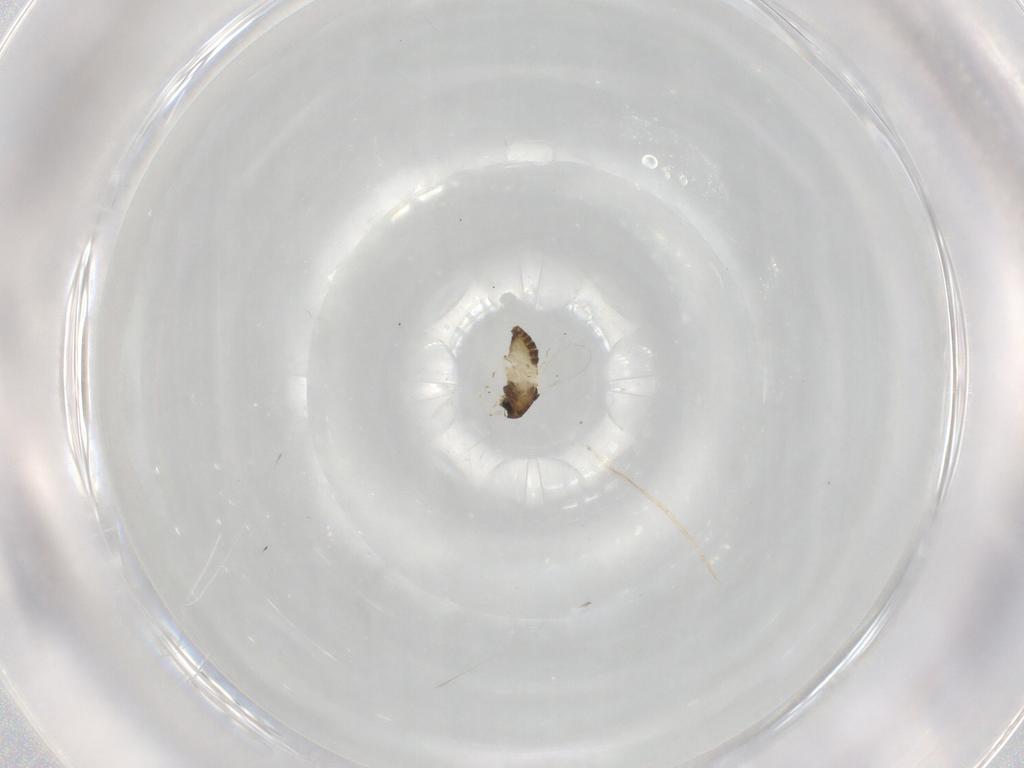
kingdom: Animalia
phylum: Arthropoda
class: Insecta
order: Diptera
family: Chironomidae
